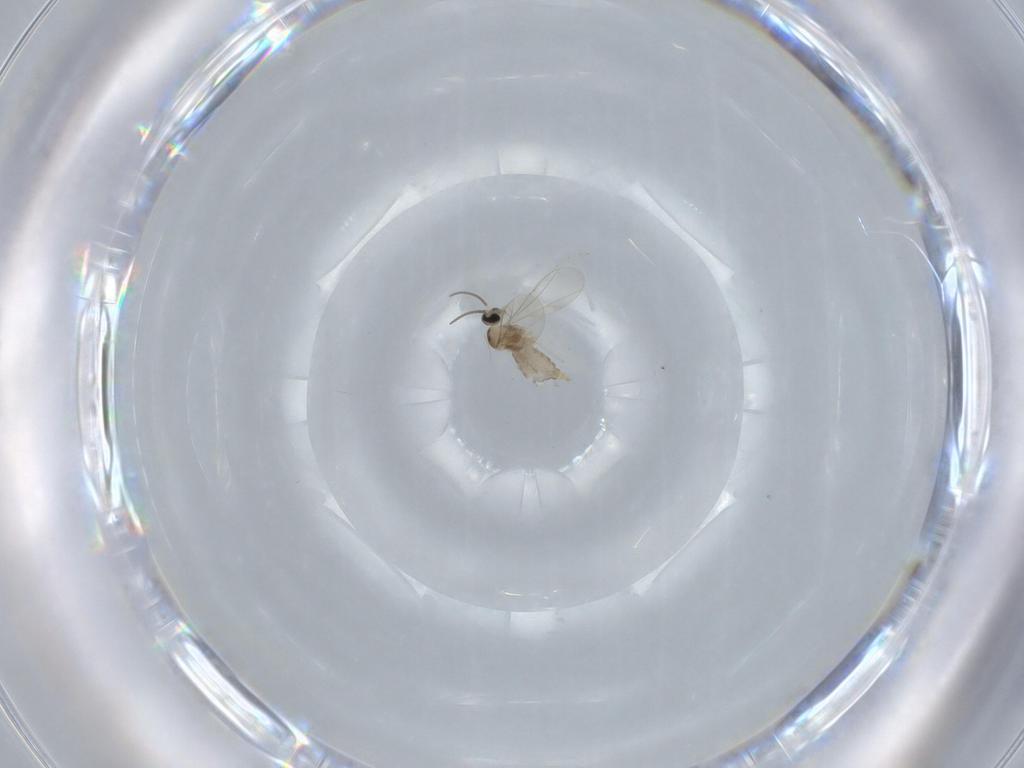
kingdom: Animalia
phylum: Arthropoda
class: Insecta
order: Diptera
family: Cecidomyiidae
